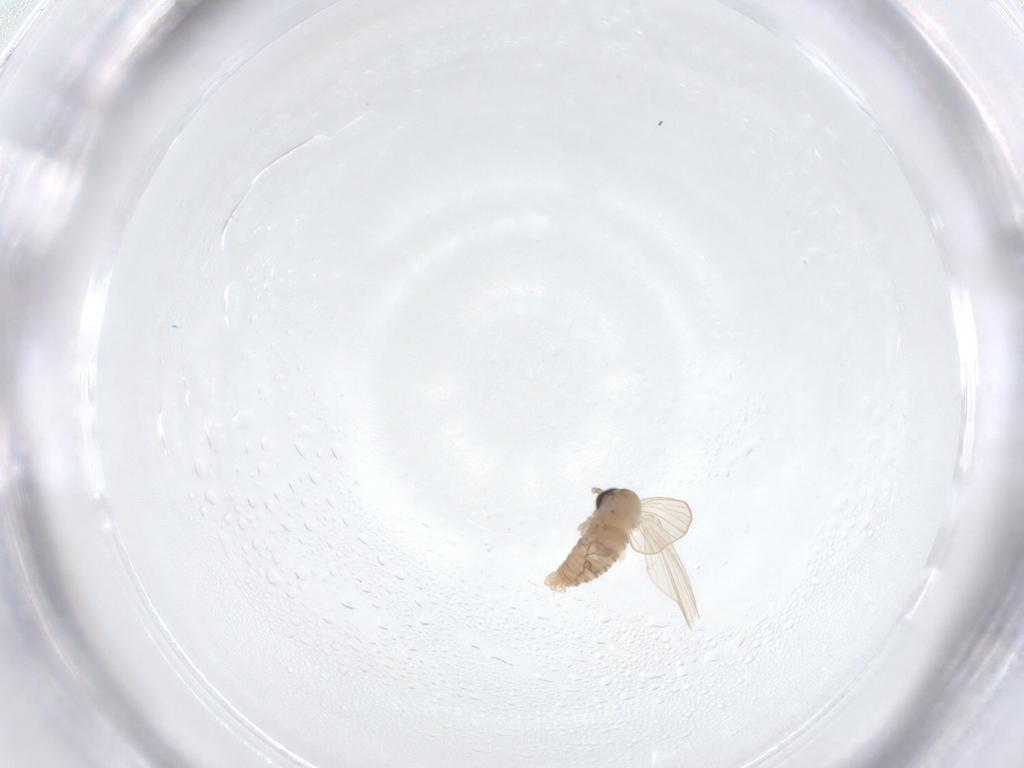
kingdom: Animalia
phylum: Arthropoda
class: Insecta
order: Diptera
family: Psychodidae
